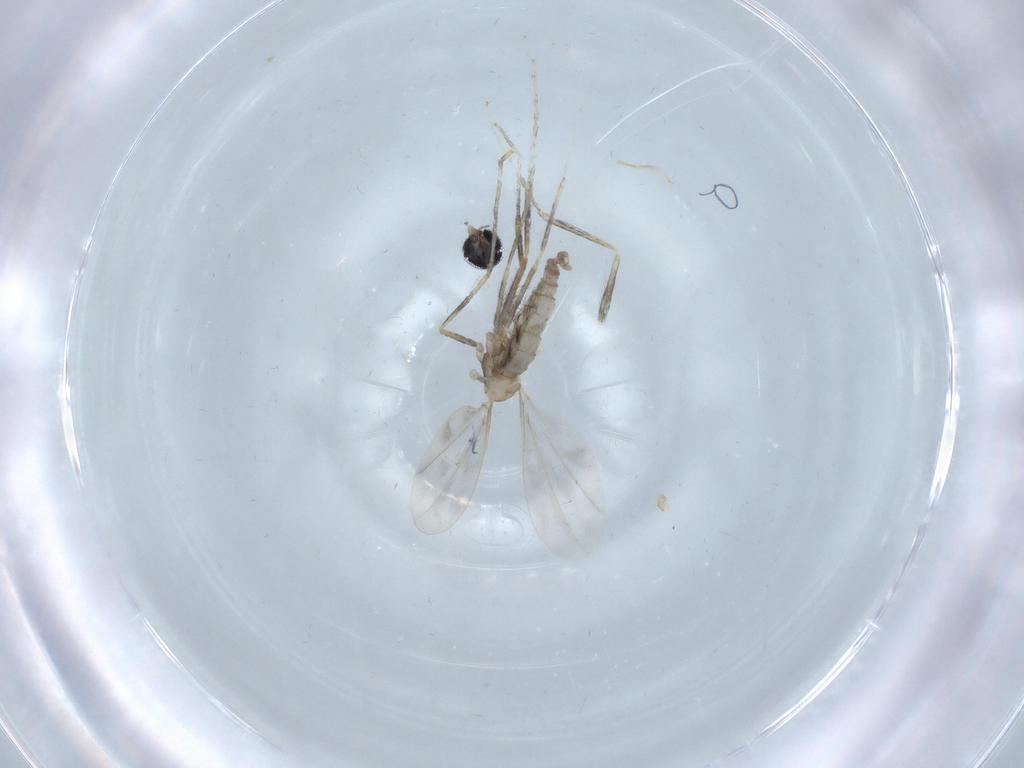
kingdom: Animalia
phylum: Arthropoda
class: Insecta
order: Diptera
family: Cecidomyiidae
